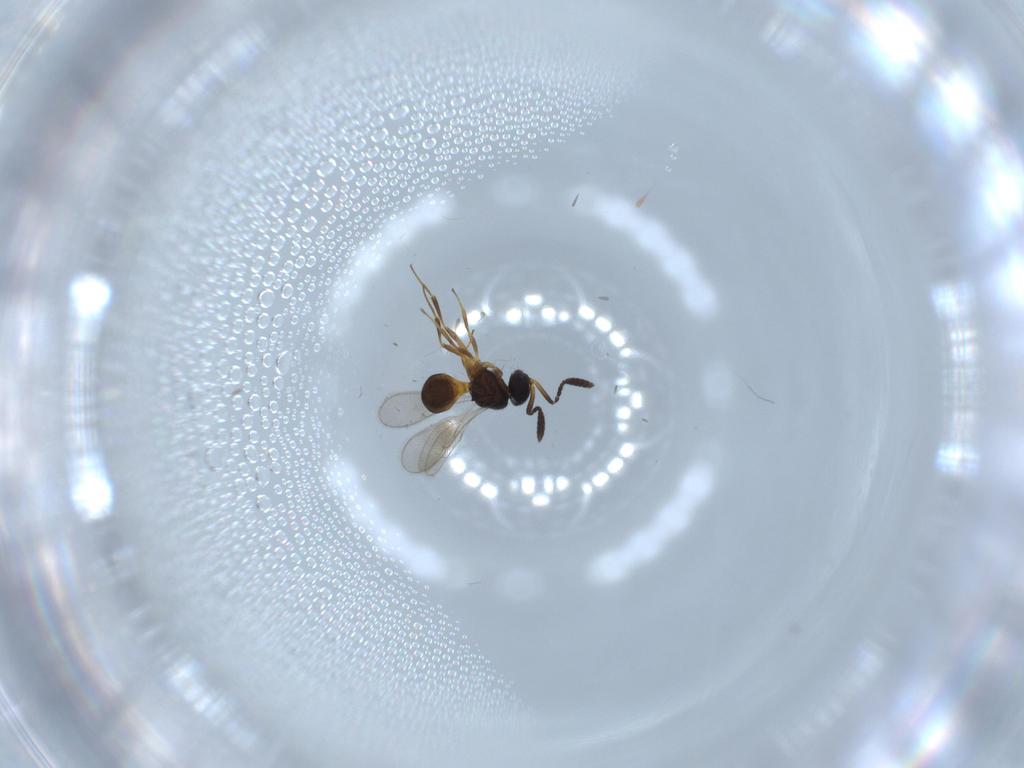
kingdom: Animalia
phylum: Arthropoda
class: Insecta
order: Hymenoptera
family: Scelionidae
